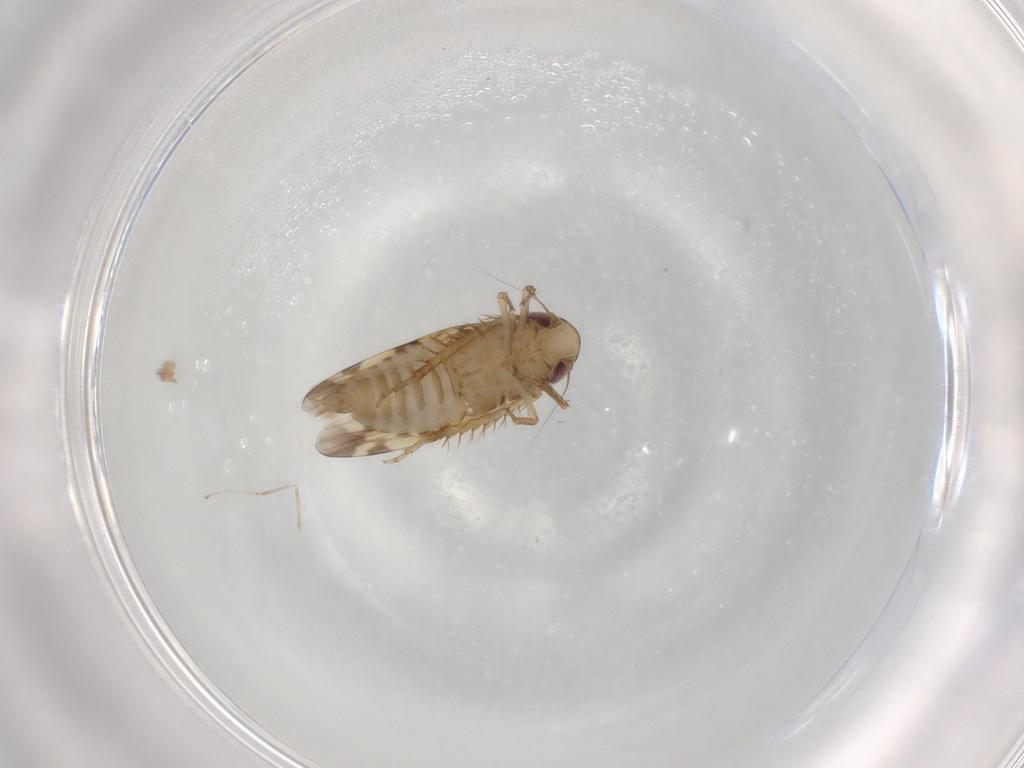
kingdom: Animalia
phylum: Arthropoda
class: Insecta
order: Hemiptera
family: Cicadellidae
